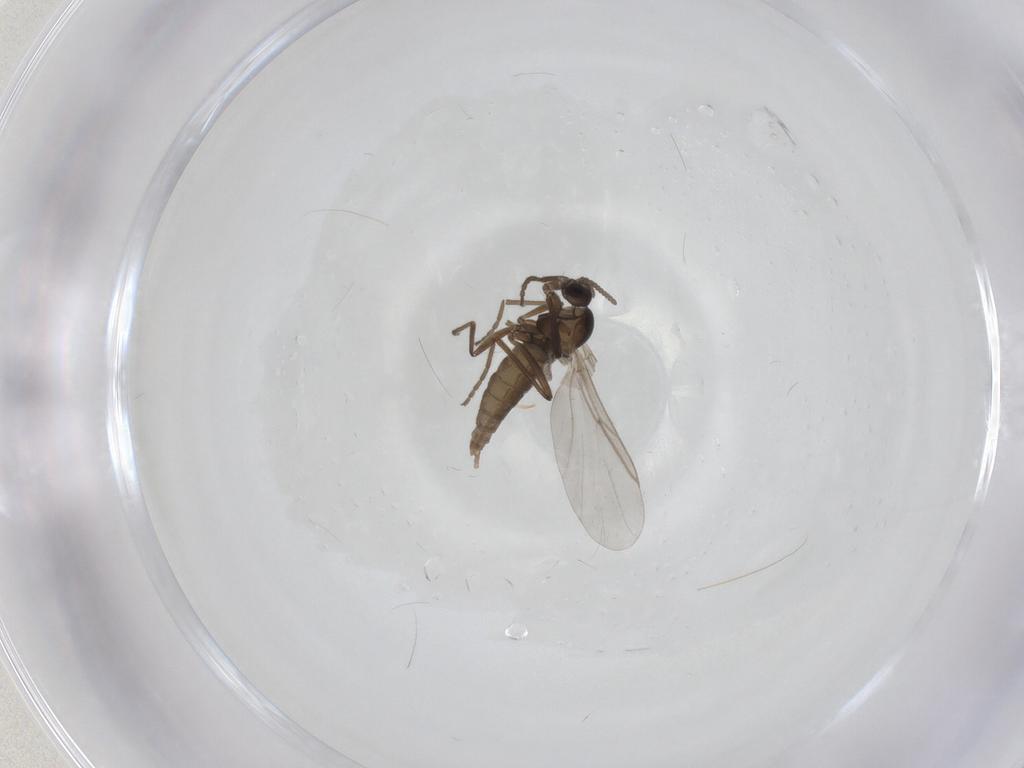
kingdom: Animalia
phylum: Arthropoda
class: Insecta
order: Diptera
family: Cecidomyiidae
